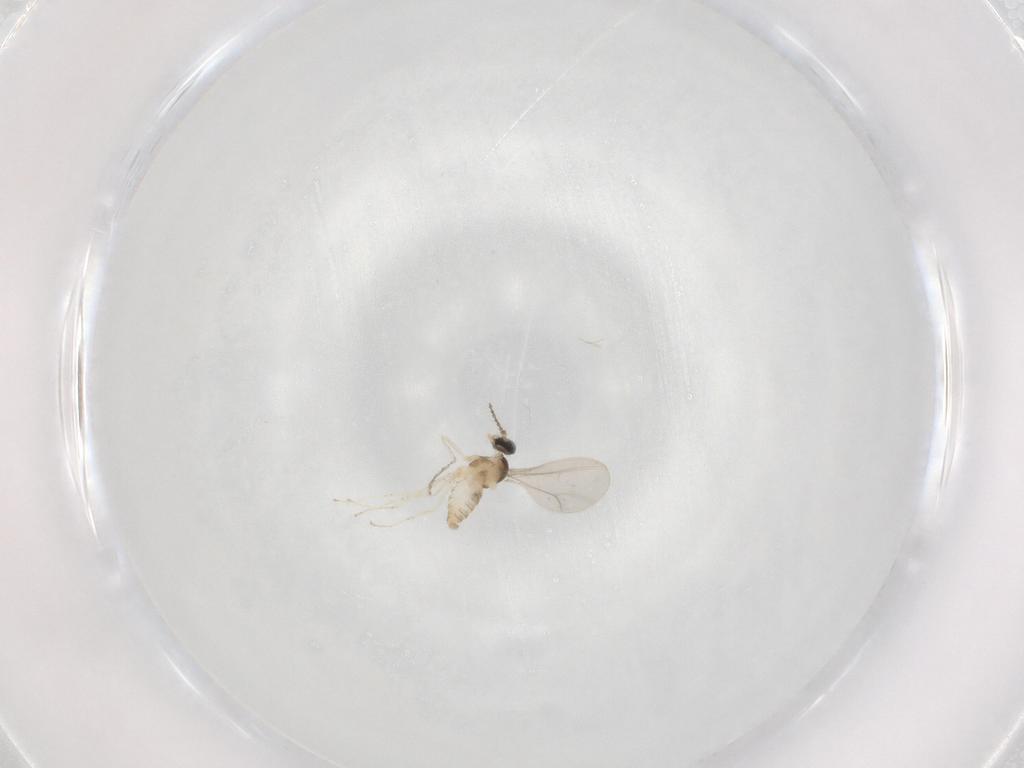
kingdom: Animalia
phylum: Arthropoda
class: Insecta
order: Diptera
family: Cecidomyiidae
